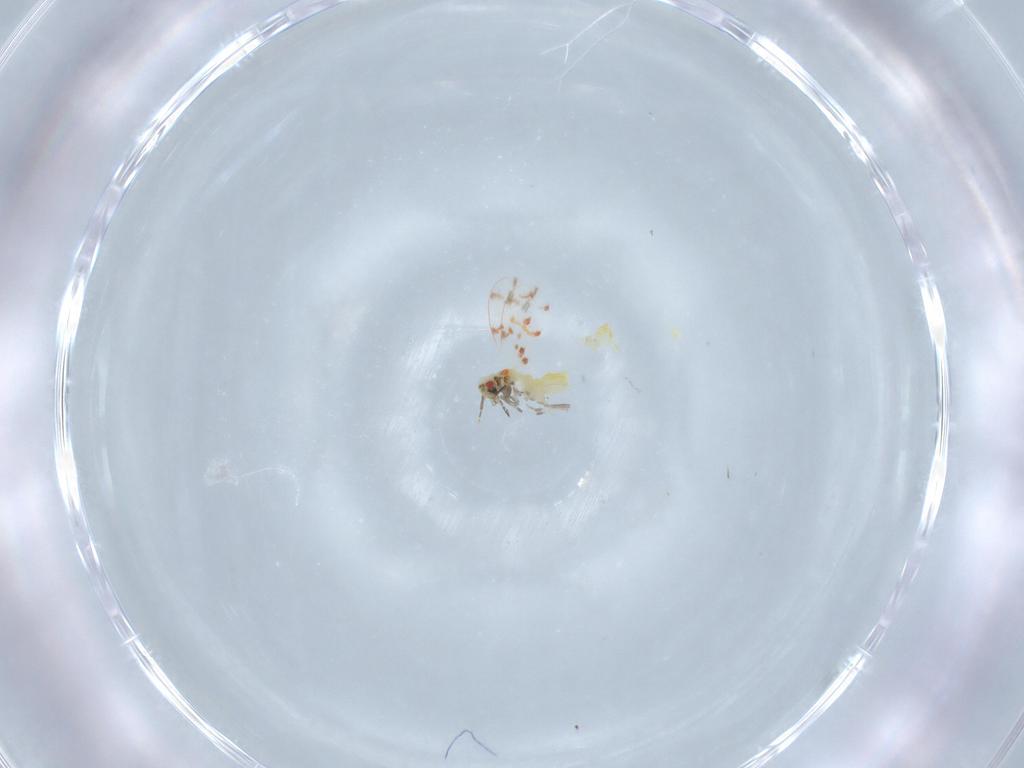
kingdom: Animalia
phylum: Arthropoda
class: Insecta
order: Hemiptera
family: Aleyrodidae
